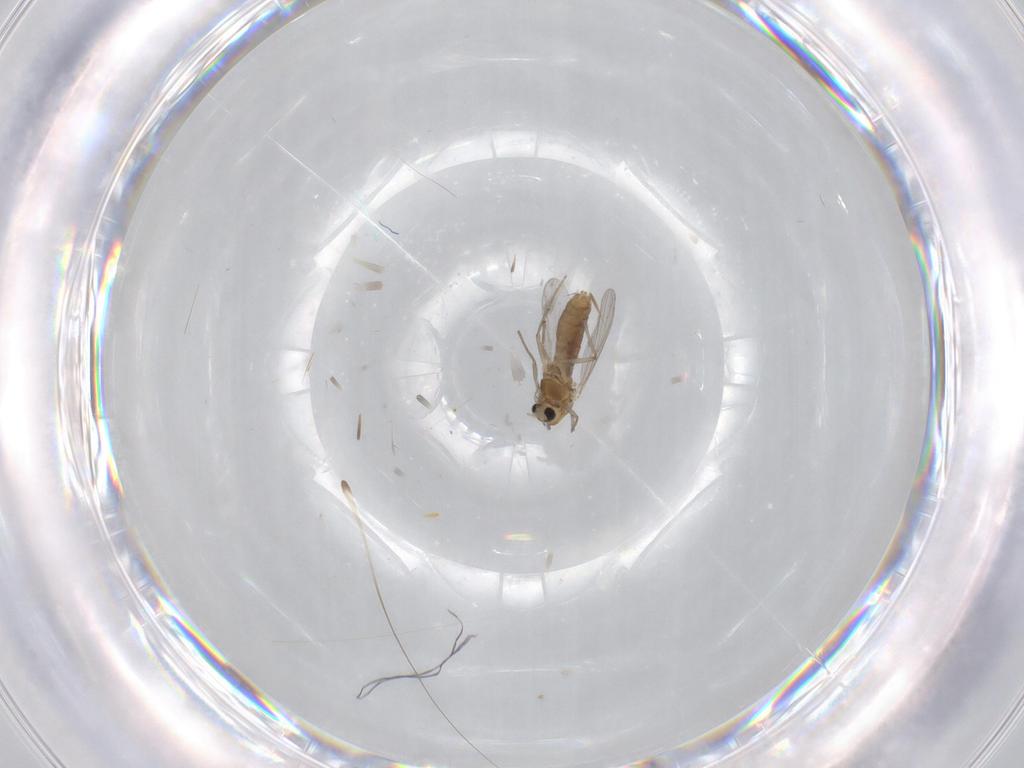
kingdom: Animalia
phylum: Arthropoda
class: Insecta
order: Diptera
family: Chironomidae
